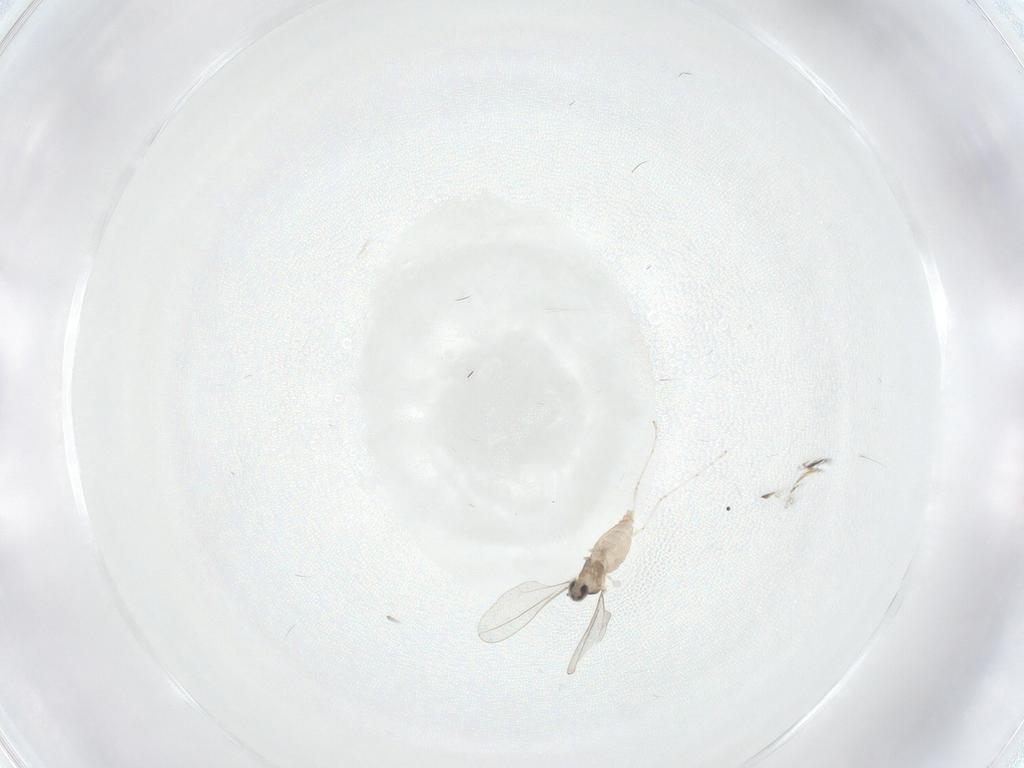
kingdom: Animalia
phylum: Arthropoda
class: Insecta
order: Diptera
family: Cecidomyiidae
